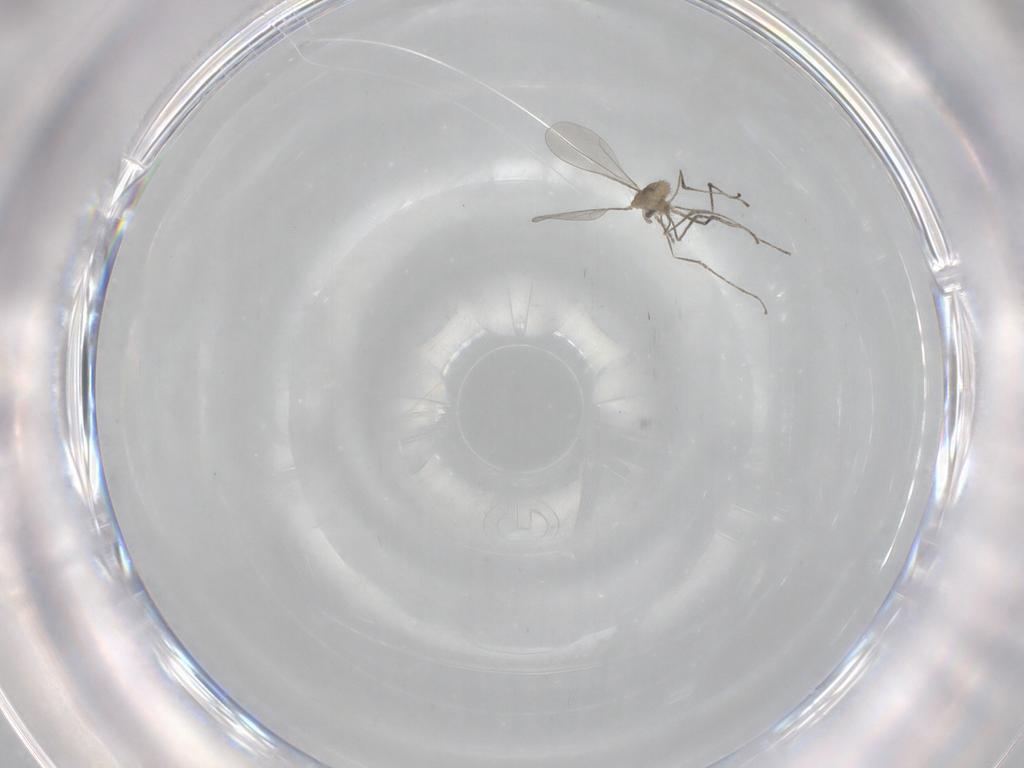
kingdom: Animalia
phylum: Arthropoda
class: Insecta
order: Diptera
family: Cecidomyiidae
